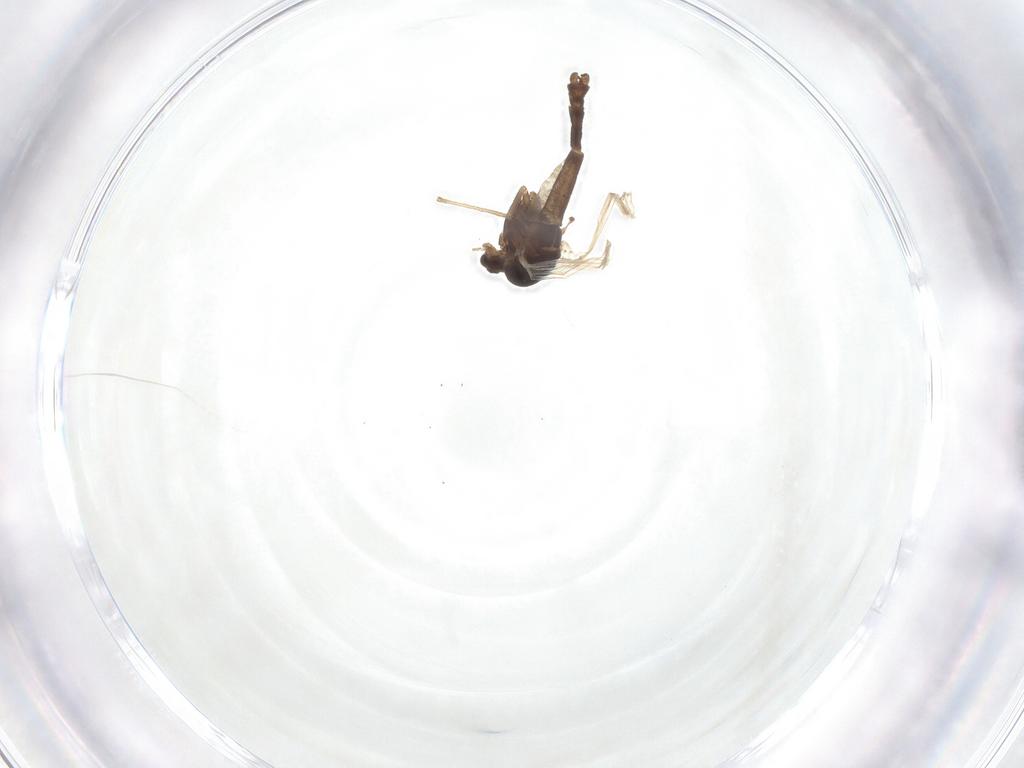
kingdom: Animalia
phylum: Arthropoda
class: Insecta
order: Diptera
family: Chironomidae
